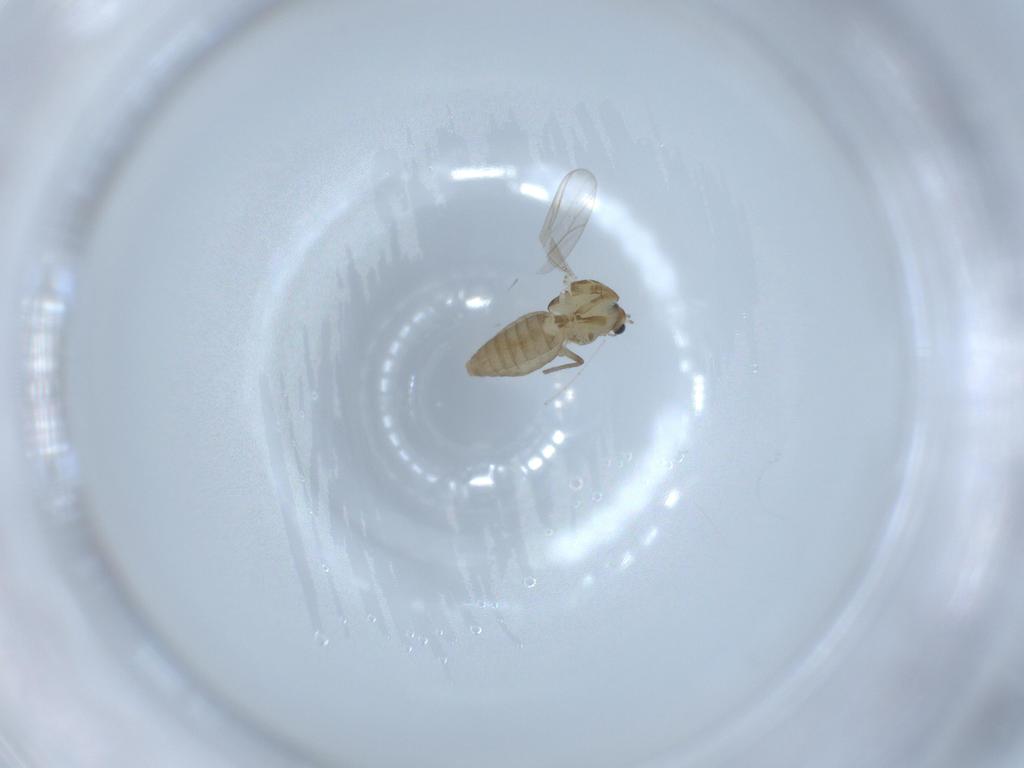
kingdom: Animalia
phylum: Arthropoda
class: Insecta
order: Diptera
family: Chironomidae
